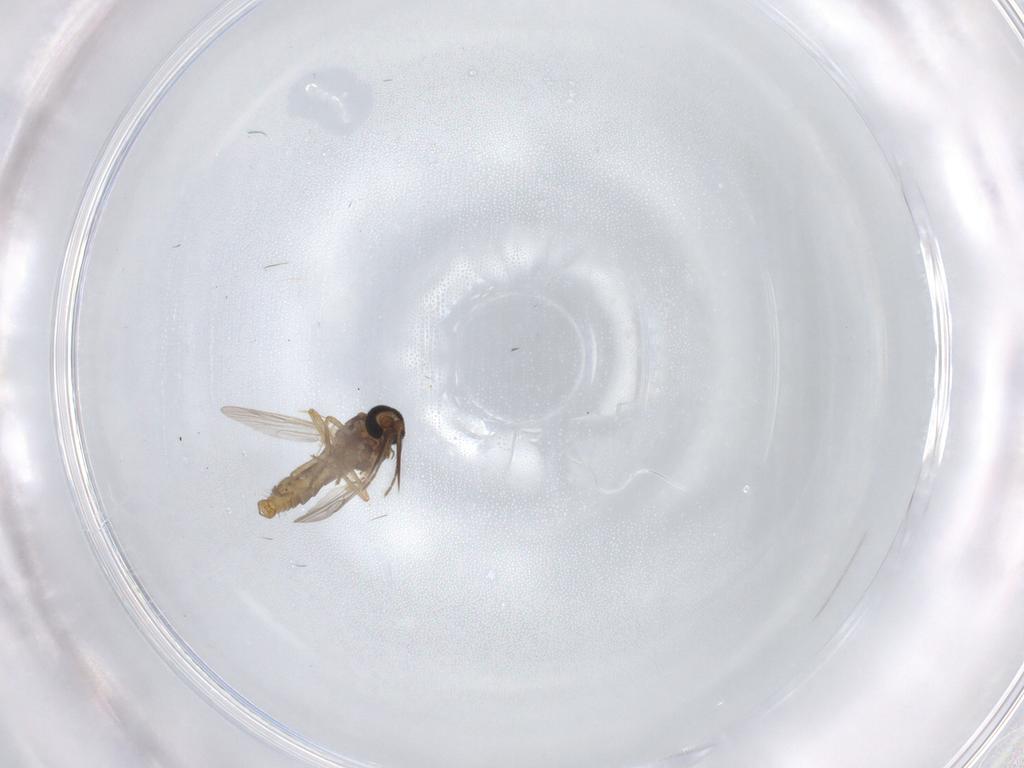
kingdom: Animalia
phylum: Arthropoda
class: Insecta
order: Diptera
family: Ceratopogonidae
